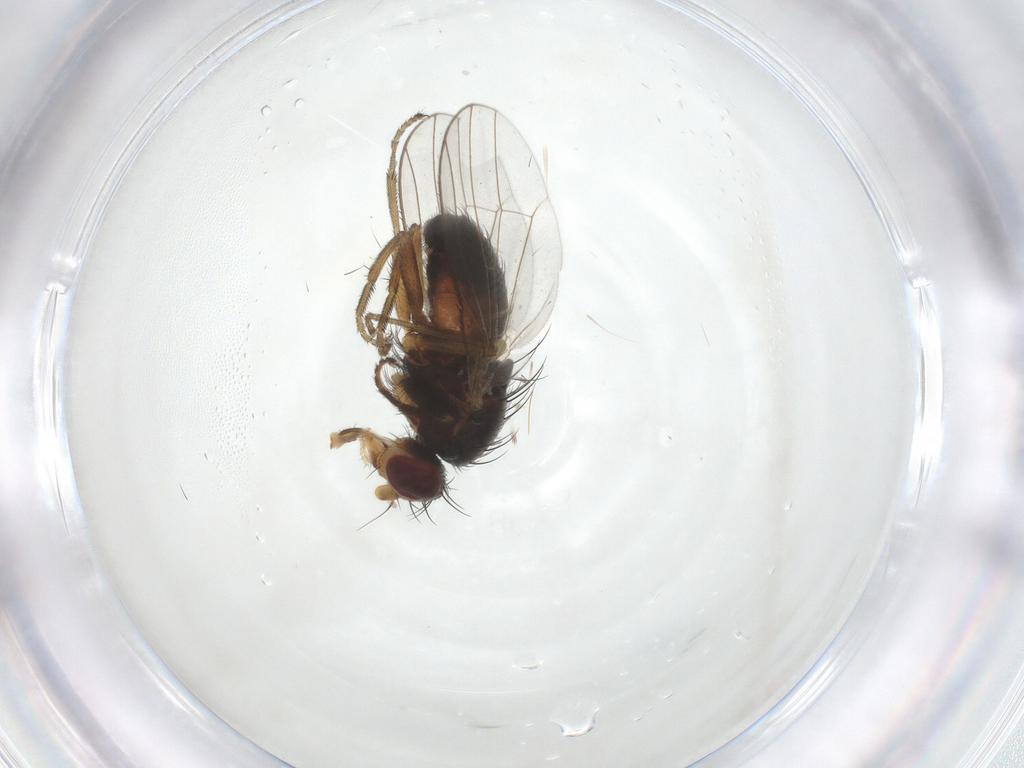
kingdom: Animalia
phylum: Arthropoda
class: Insecta
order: Diptera
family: Heleomyzidae
